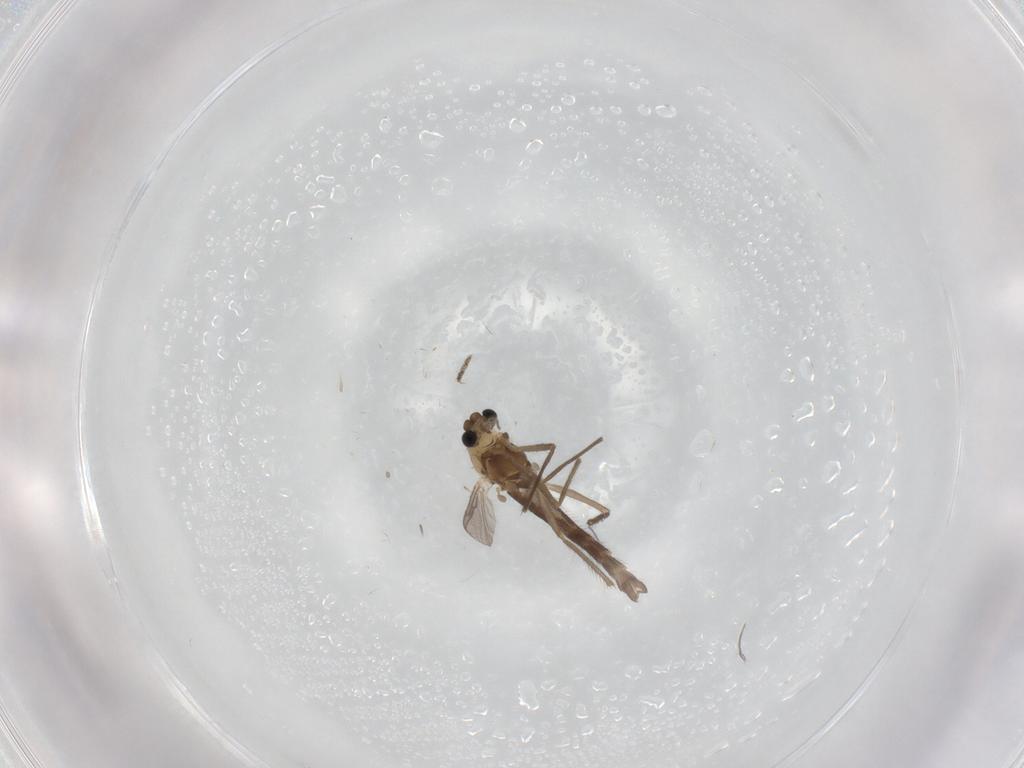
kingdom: Animalia
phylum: Arthropoda
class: Insecta
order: Diptera
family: Chironomidae
